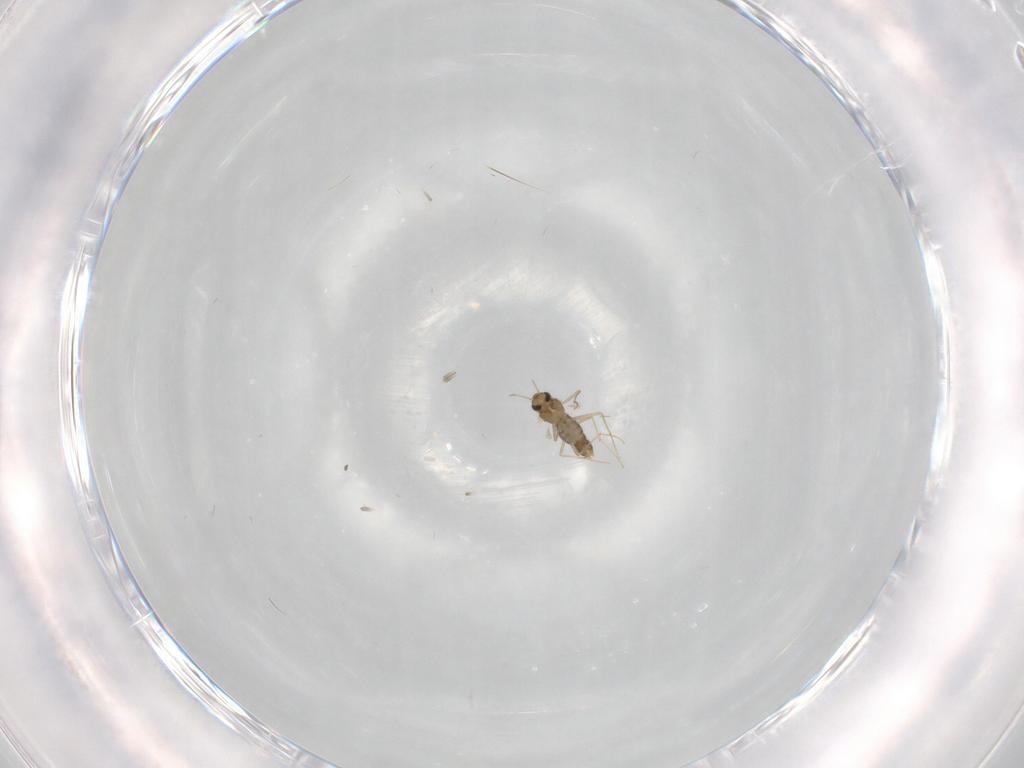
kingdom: Animalia
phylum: Arthropoda
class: Insecta
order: Diptera
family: Chironomidae
